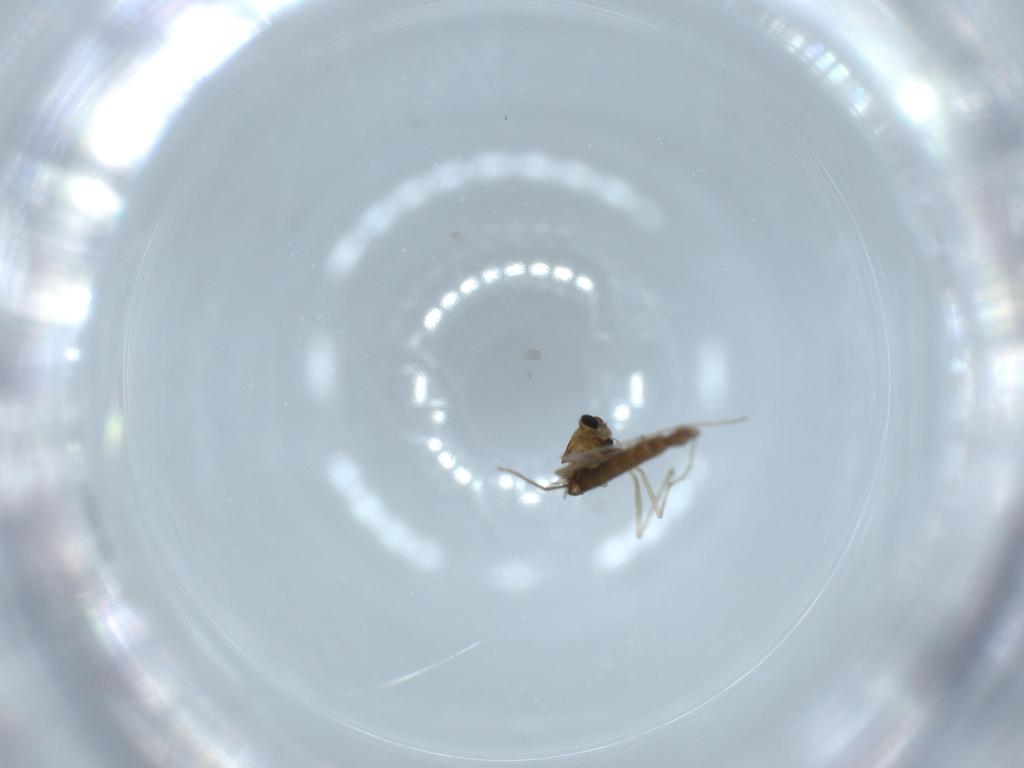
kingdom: Animalia
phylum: Arthropoda
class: Insecta
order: Diptera
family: Chironomidae
